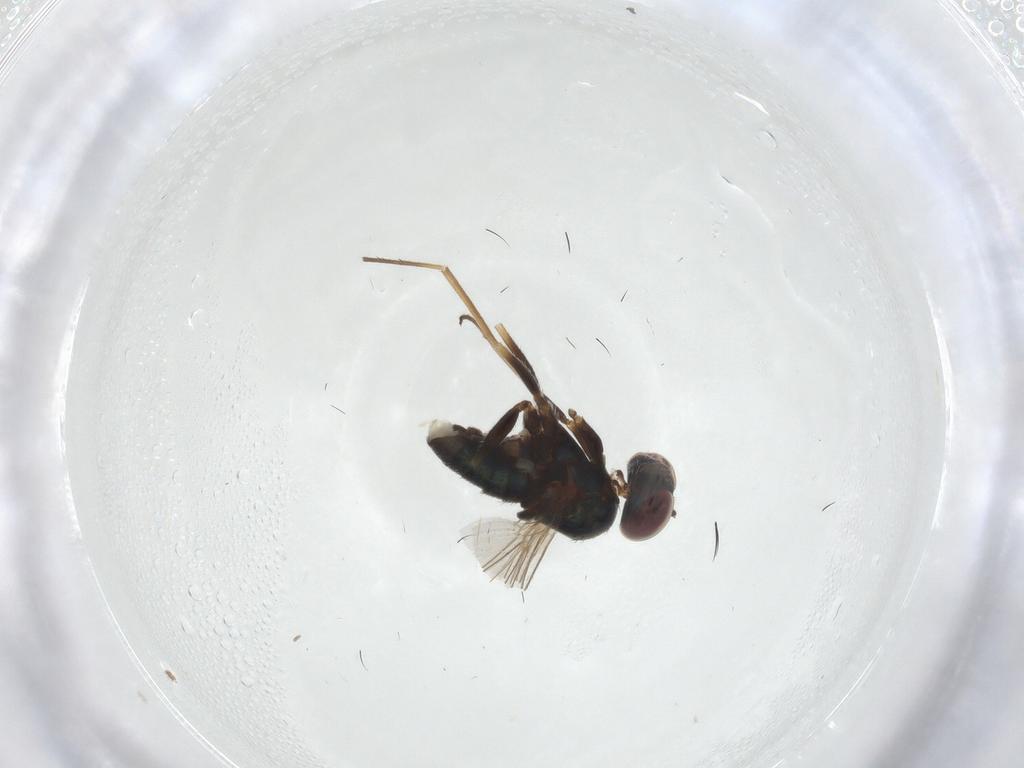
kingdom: Animalia
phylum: Arthropoda
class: Insecta
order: Diptera
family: Dolichopodidae
